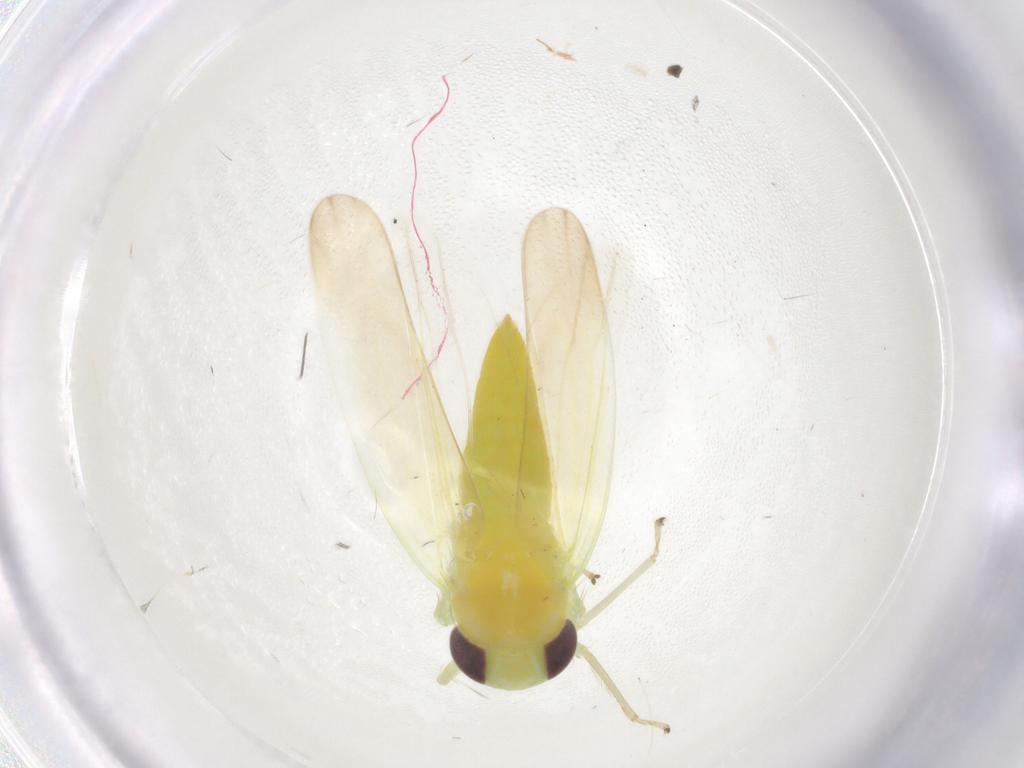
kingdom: Animalia
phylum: Arthropoda
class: Insecta
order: Hemiptera
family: Cicadellidae
